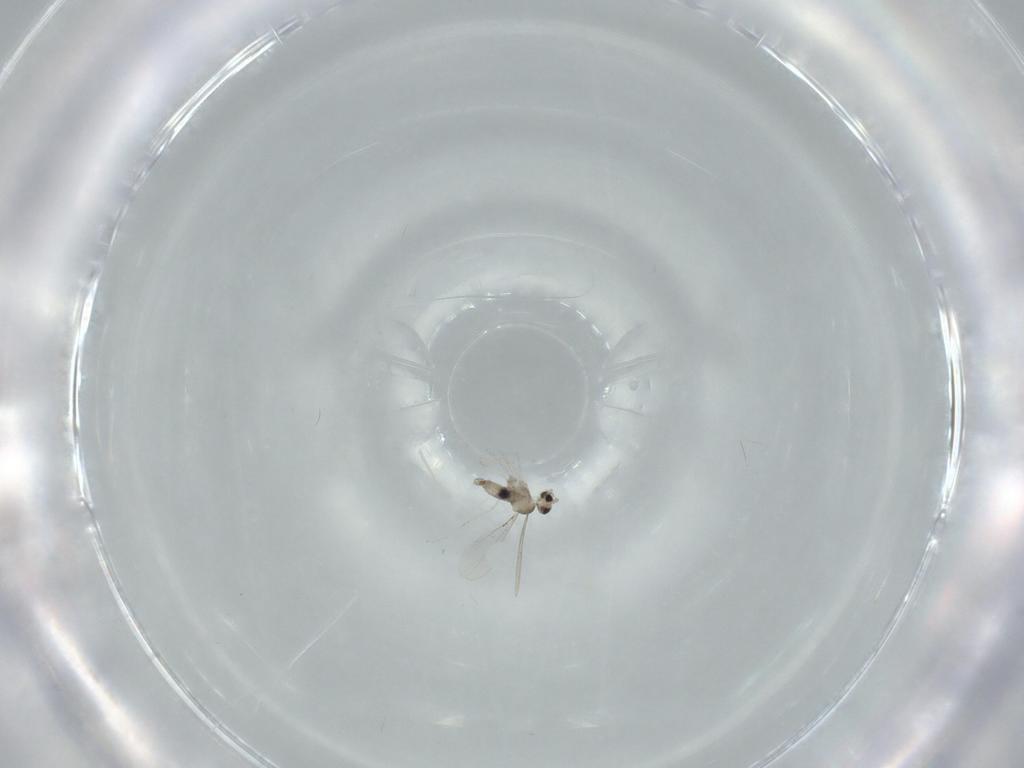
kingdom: Animalia
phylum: Arthropoda
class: Insecta
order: Diptera
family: Cecidomyiidae
